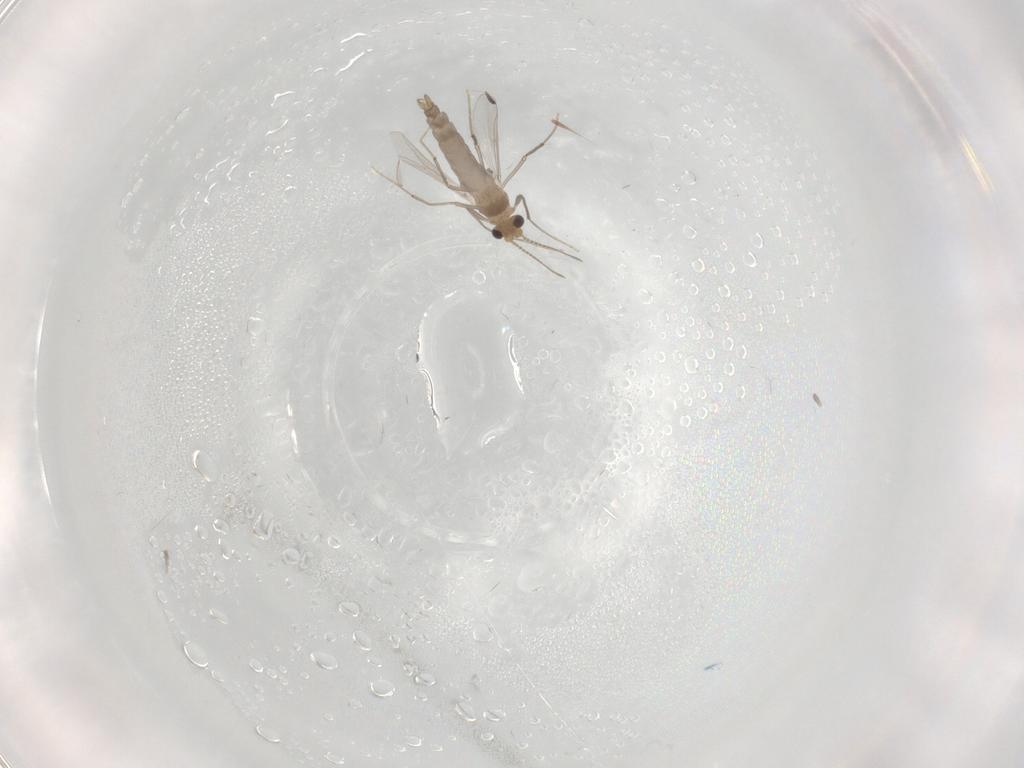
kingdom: Animalia
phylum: Arthropoda
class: Insecta
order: Diptera
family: Chironomidae
